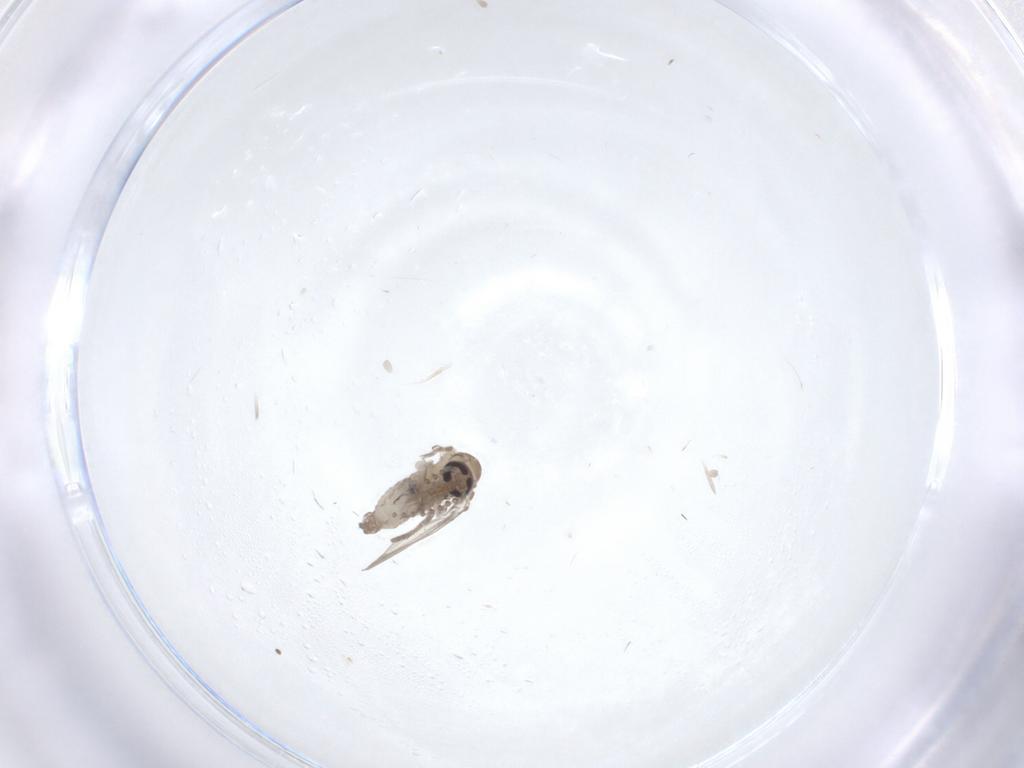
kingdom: Animalia
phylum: Arthropoda
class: Insecta
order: Diptera
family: Psychodidae
